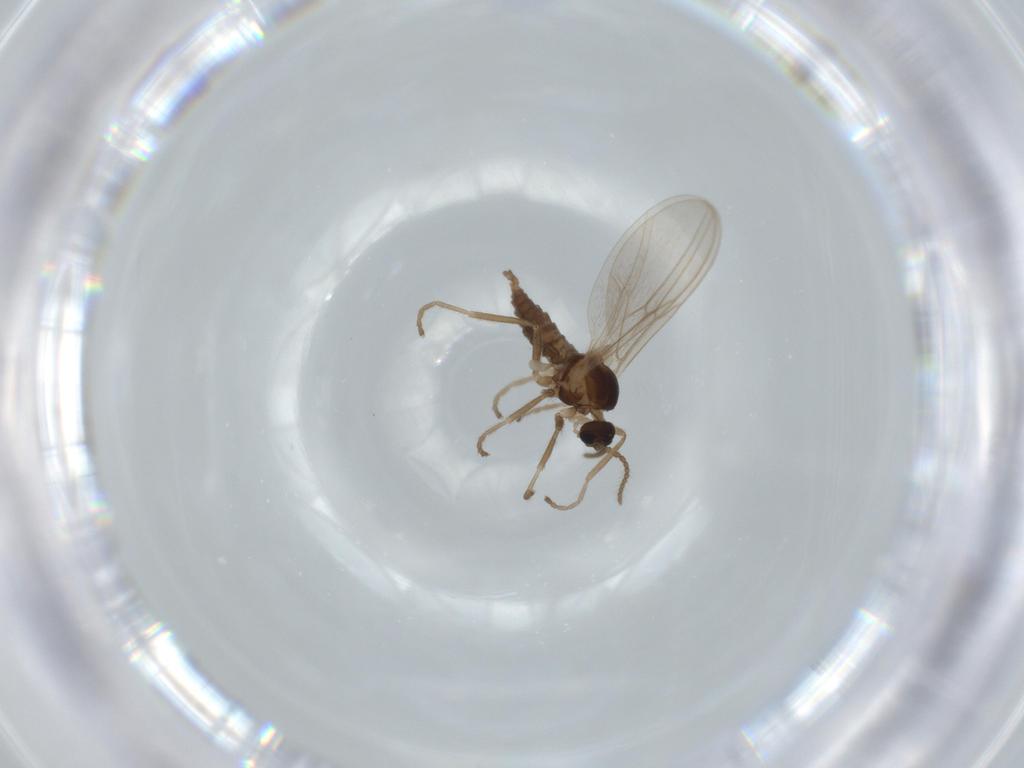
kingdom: Animalia
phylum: Arthropoda
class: Insecta
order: Diptera
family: Cecidomyiidae
